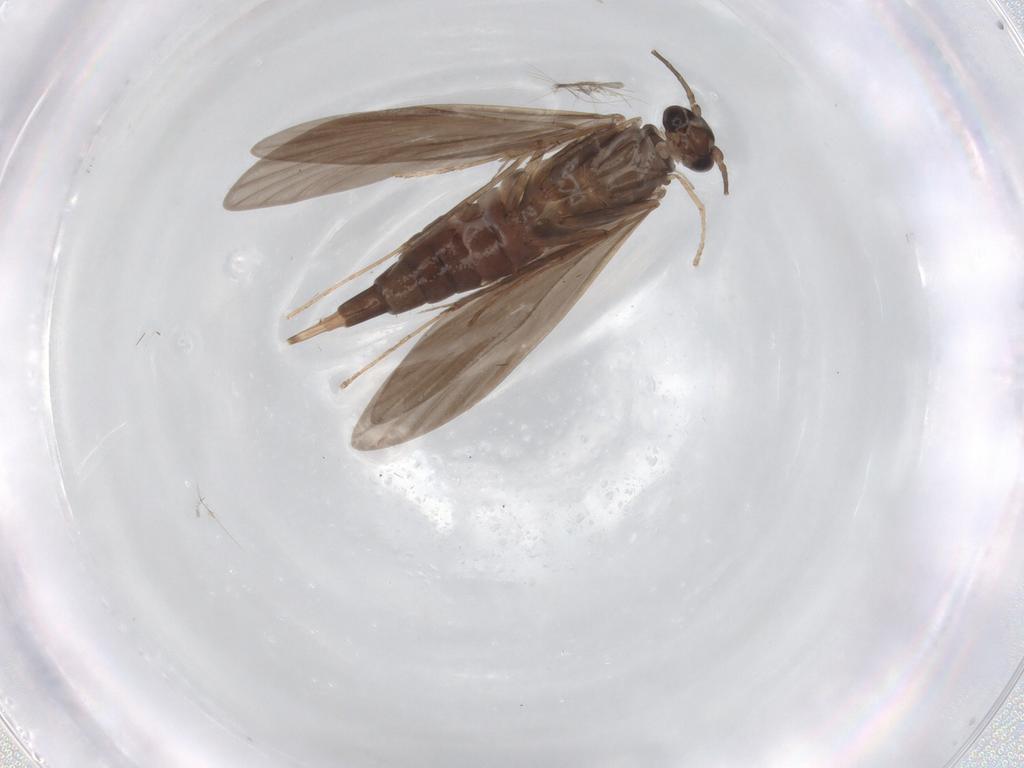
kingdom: Animalia
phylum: Arthropoda
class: Insecta
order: Trichoptera
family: Xiphocentronidae
